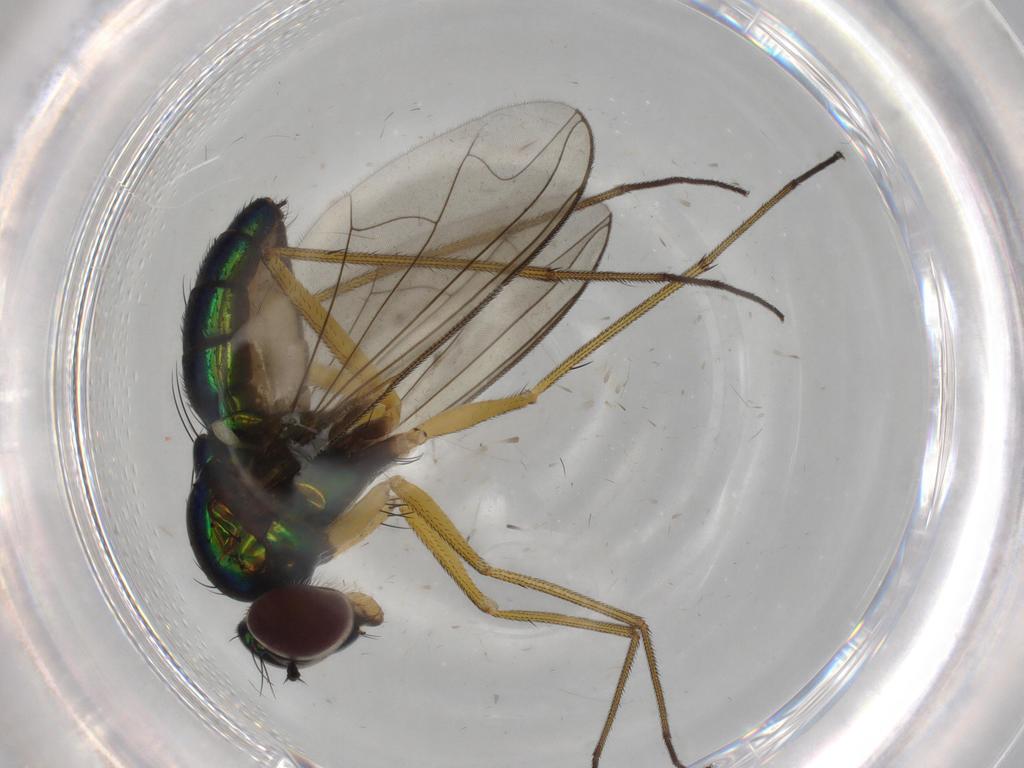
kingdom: Animalia
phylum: Arthropoda
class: Insecta
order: Diptera
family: Dolichopodidae
